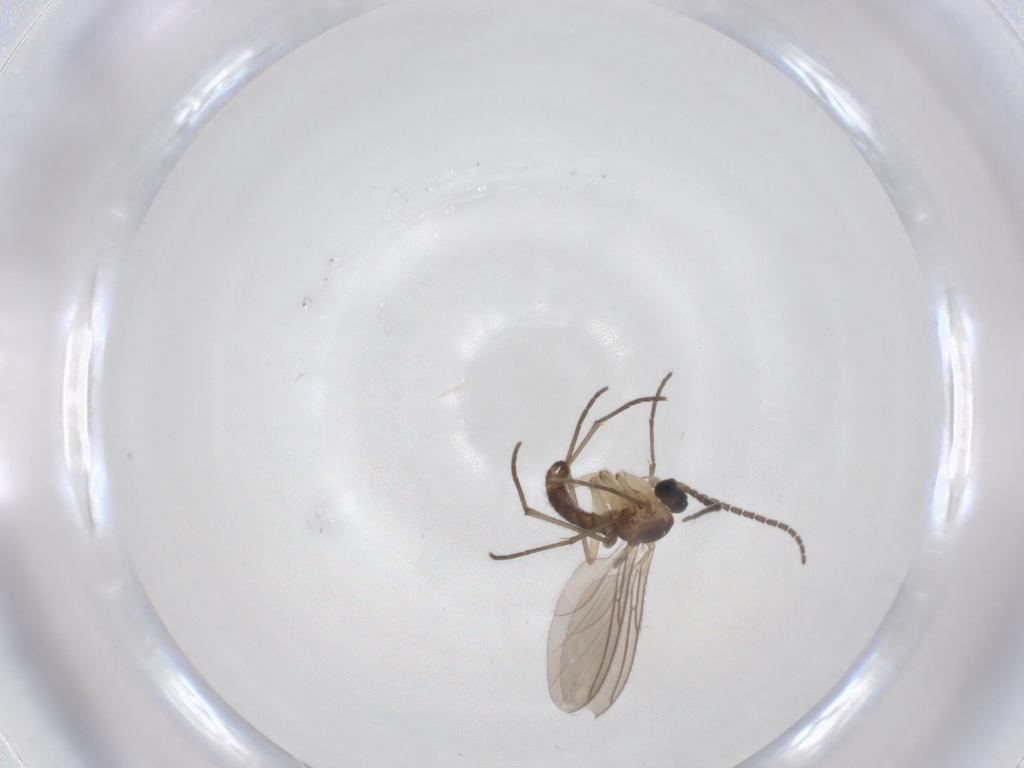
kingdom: Animalia
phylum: Arthropoda
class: Insecta
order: Diptera
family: Sciaridae
